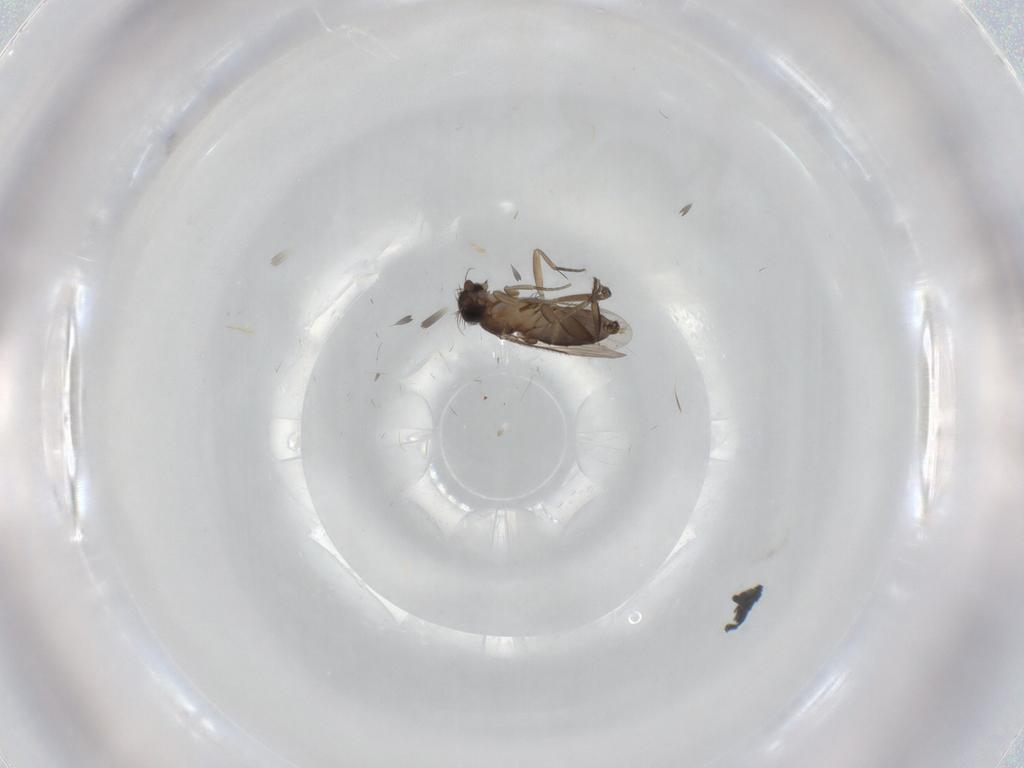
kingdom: Animalia
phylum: Arthropoda
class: Insecta
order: Diptera
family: Phoridae
